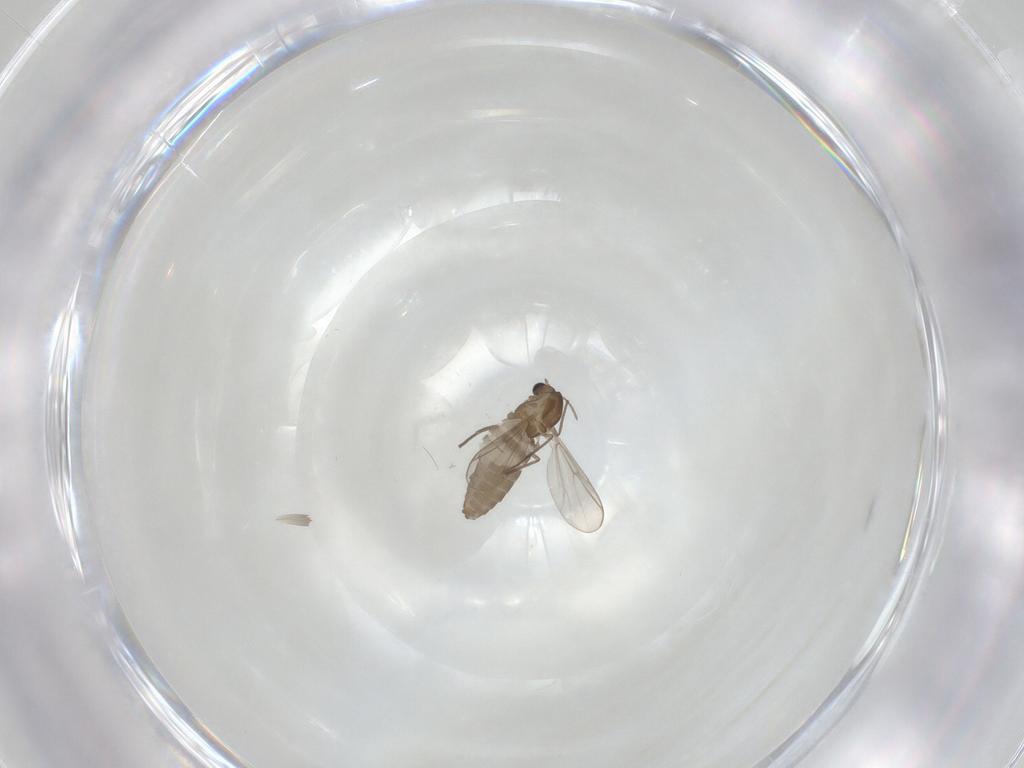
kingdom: Animalia
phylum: Arthropoda
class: Insecta
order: Diptera
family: Chironomidae
